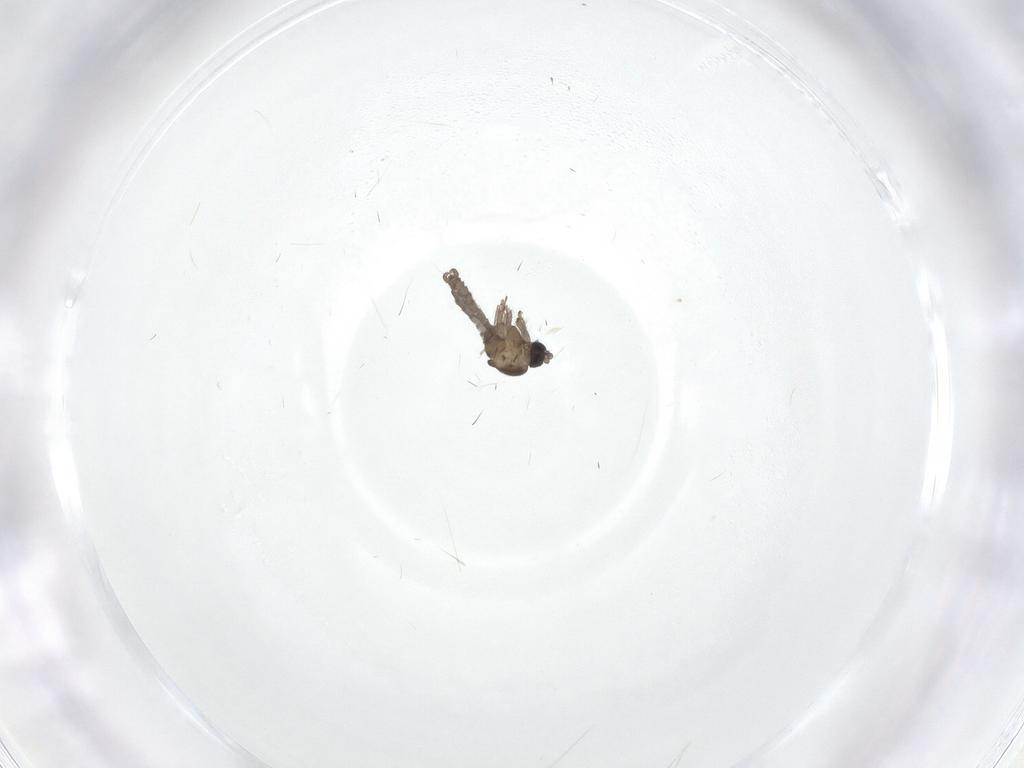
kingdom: Animalia
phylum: Arthropoda
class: Insecta
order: Diptera
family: Sciaridae
